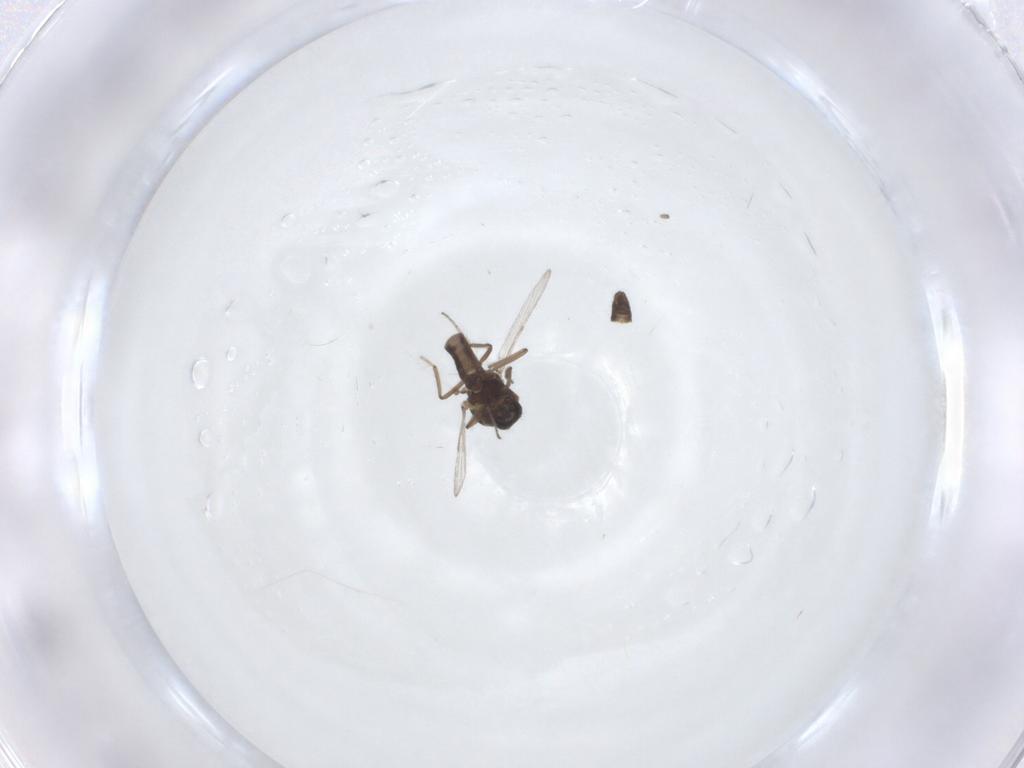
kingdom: Animalia
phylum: Arthropoda
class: Insecta
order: Diptera
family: Ceratopogonidae
